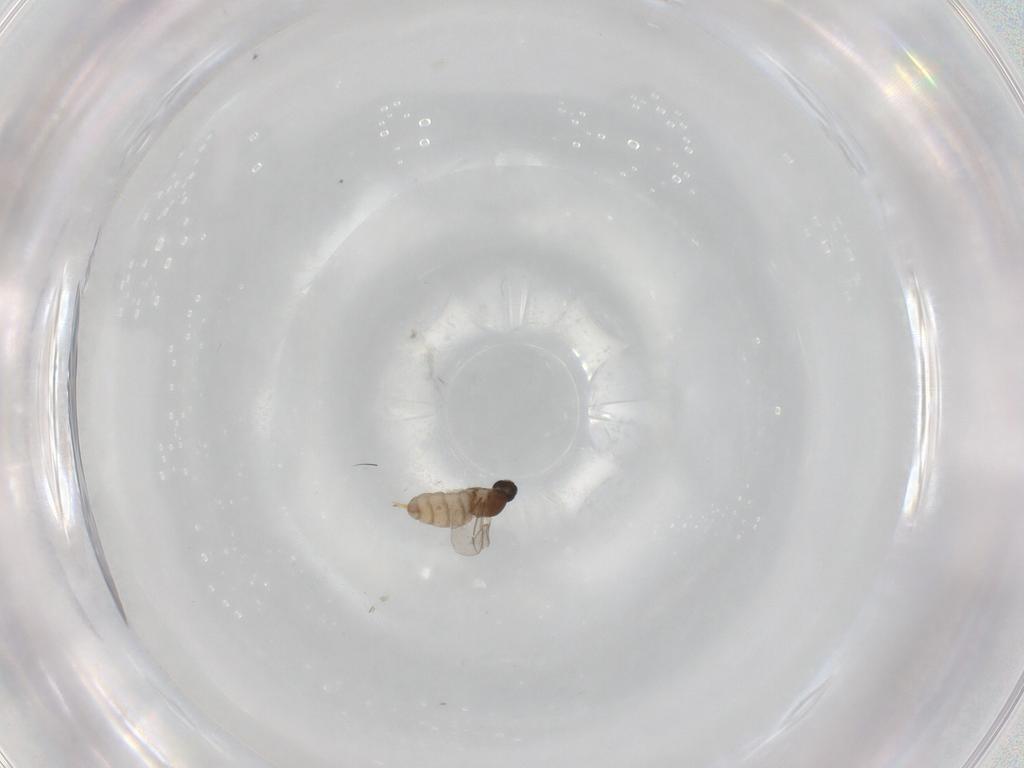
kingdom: Animalia
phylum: Arthropoda
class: Insecta
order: Diptera
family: Cecidomyiidae
